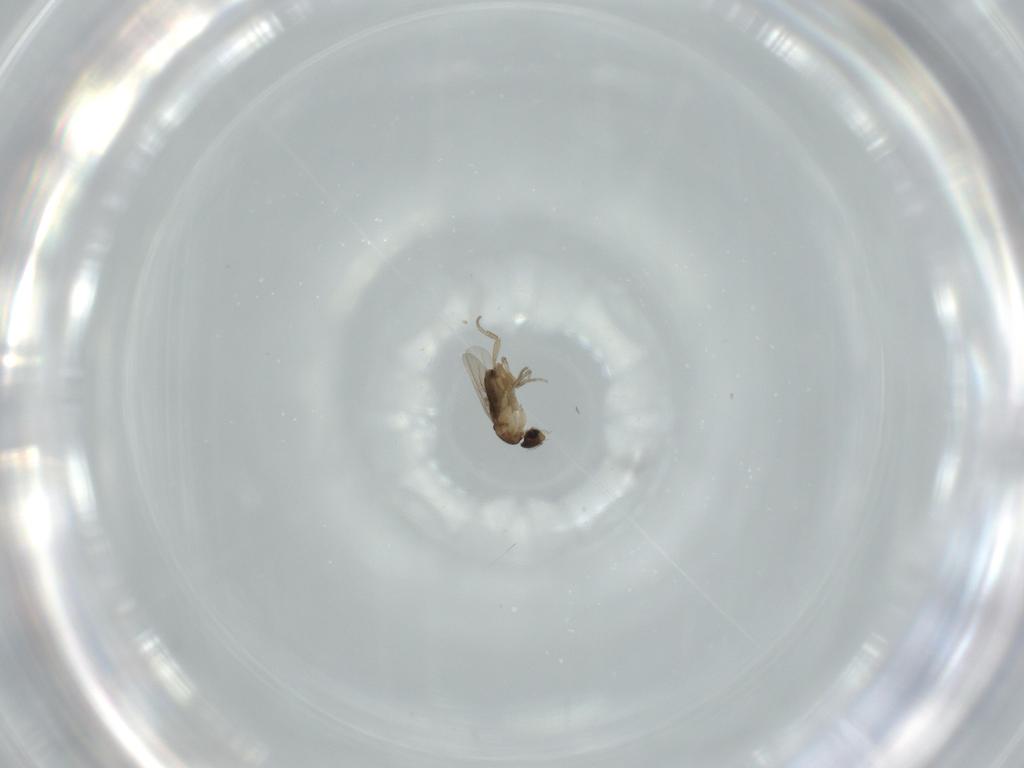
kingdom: Animalia
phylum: Arthropoda
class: Insecta
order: Diptera
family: Phoridae
